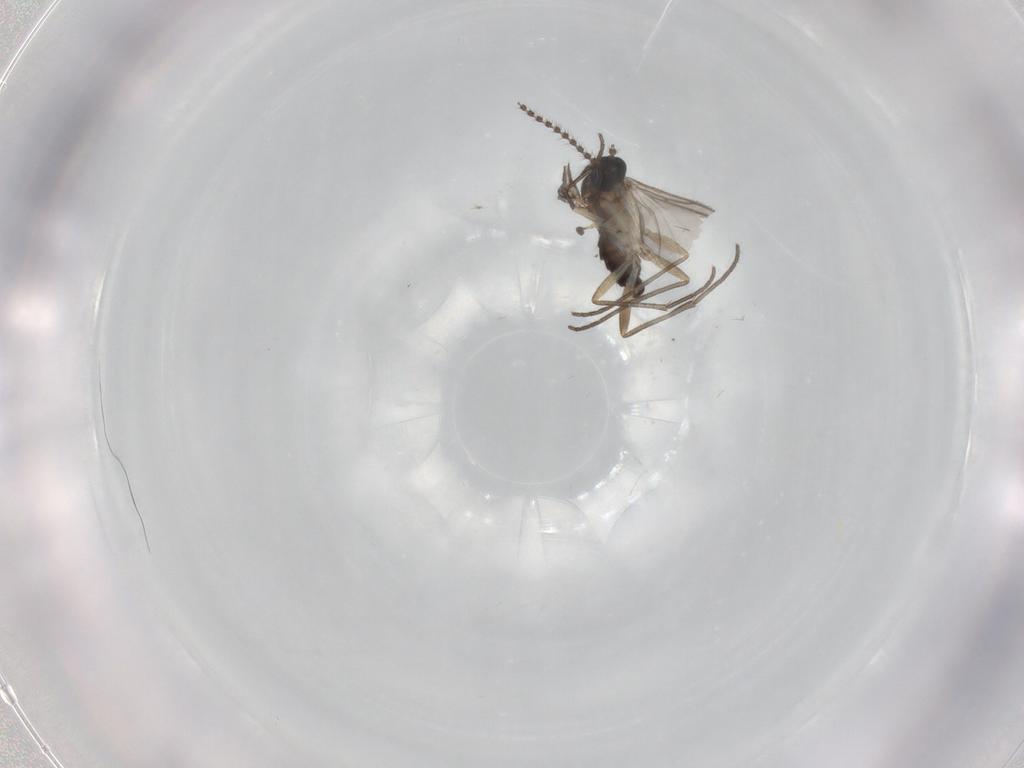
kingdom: Animalia
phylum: Arthropoda
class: Insecta
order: Diptera
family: Sciaridae
